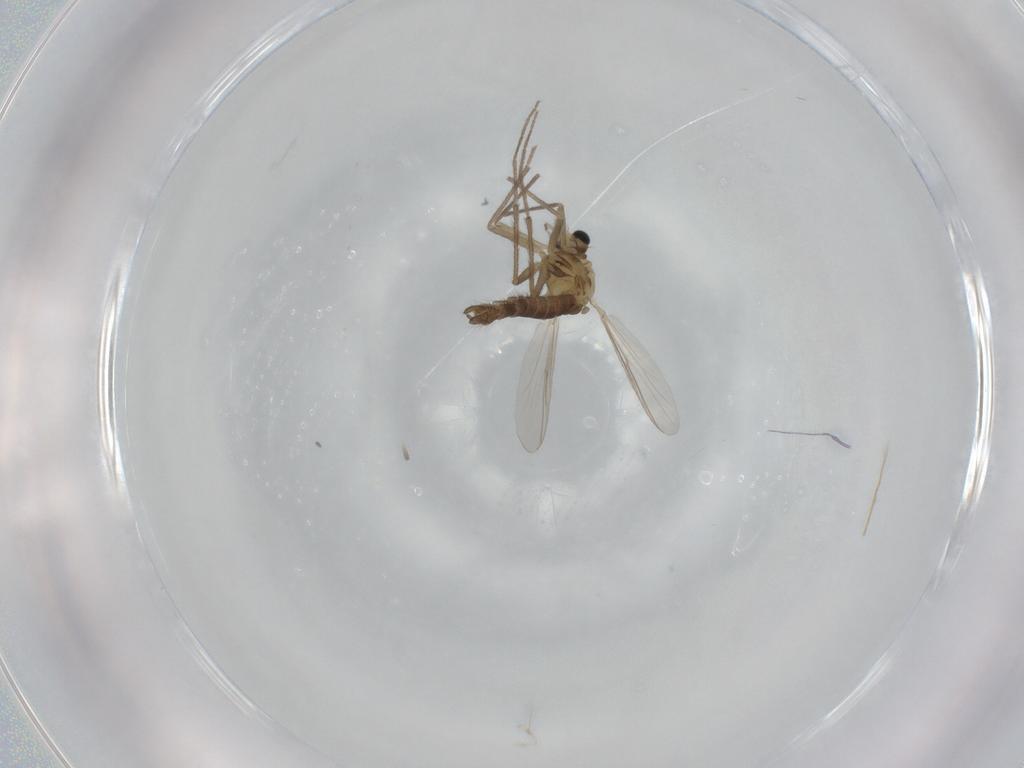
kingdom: Animalia
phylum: Arthropoda
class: Insecta
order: Diptera
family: Chironomidae
